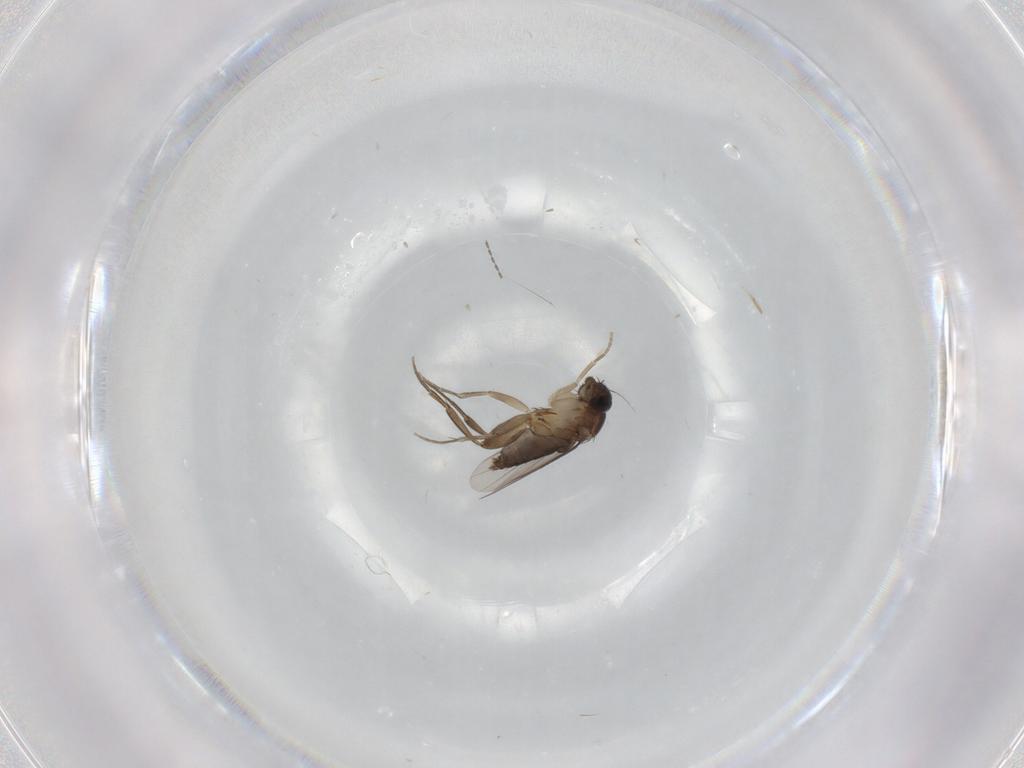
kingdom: Animalia
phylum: Arthropoda
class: Insecta
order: Diptera
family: Phoridae
